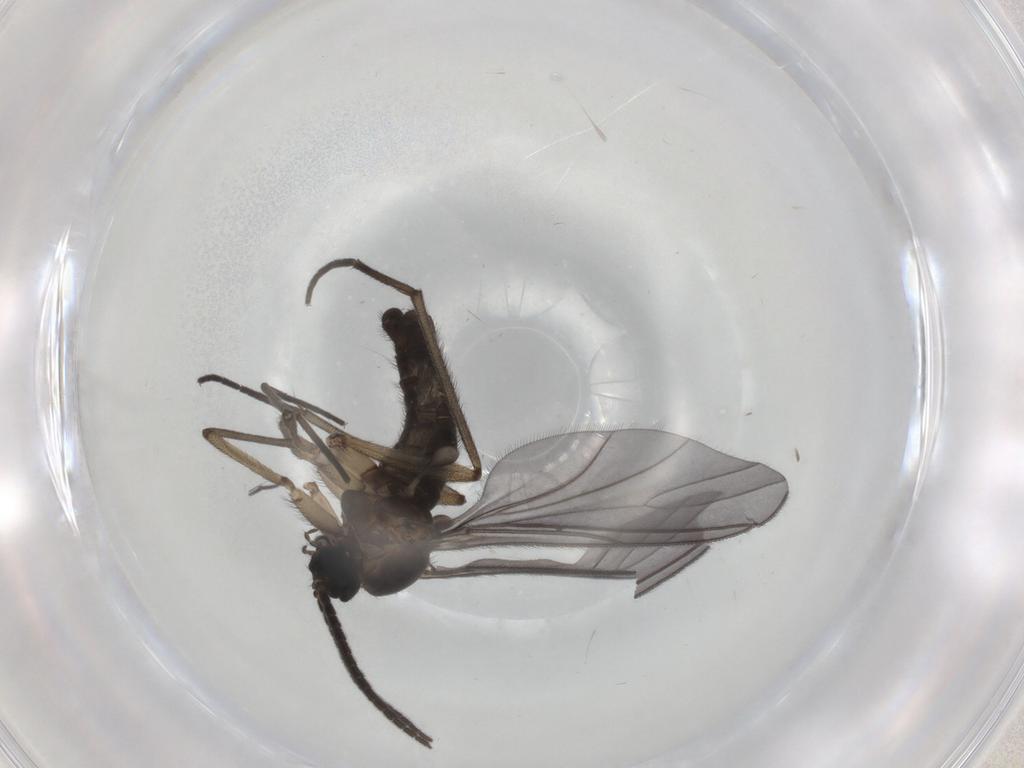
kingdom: Animalia
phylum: Arthropoda
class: Insecta
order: Diptera
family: Sciaridae
